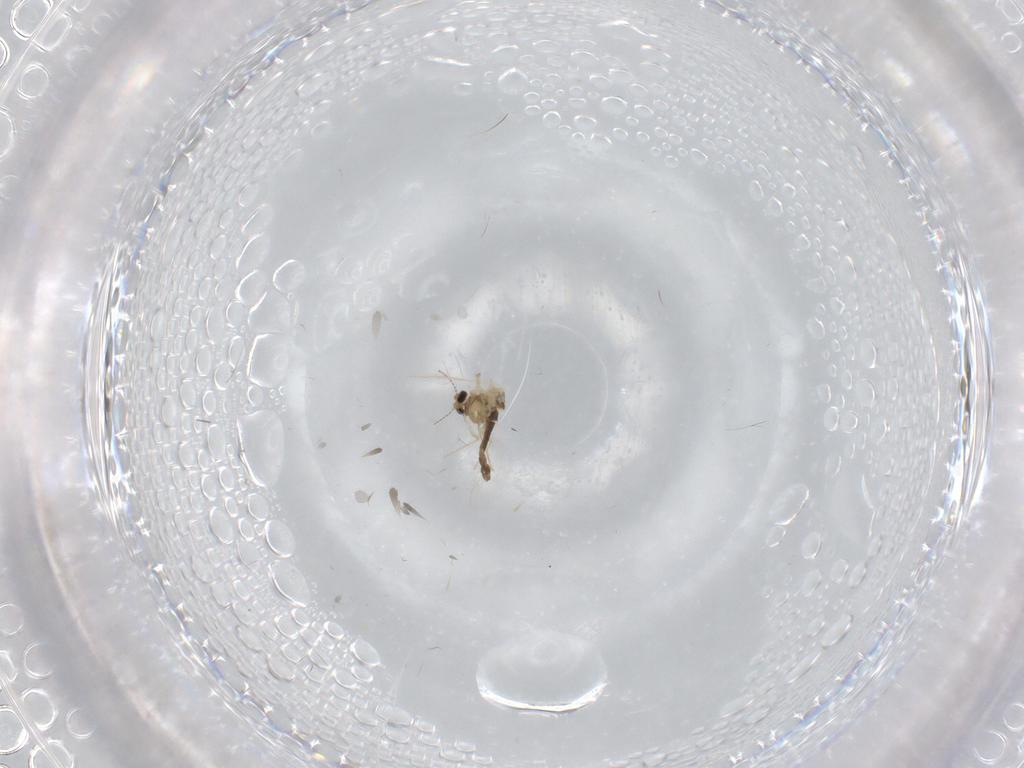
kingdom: Animalia
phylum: Arthropoda
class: Insecta
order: Diptera
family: Chironomidae
